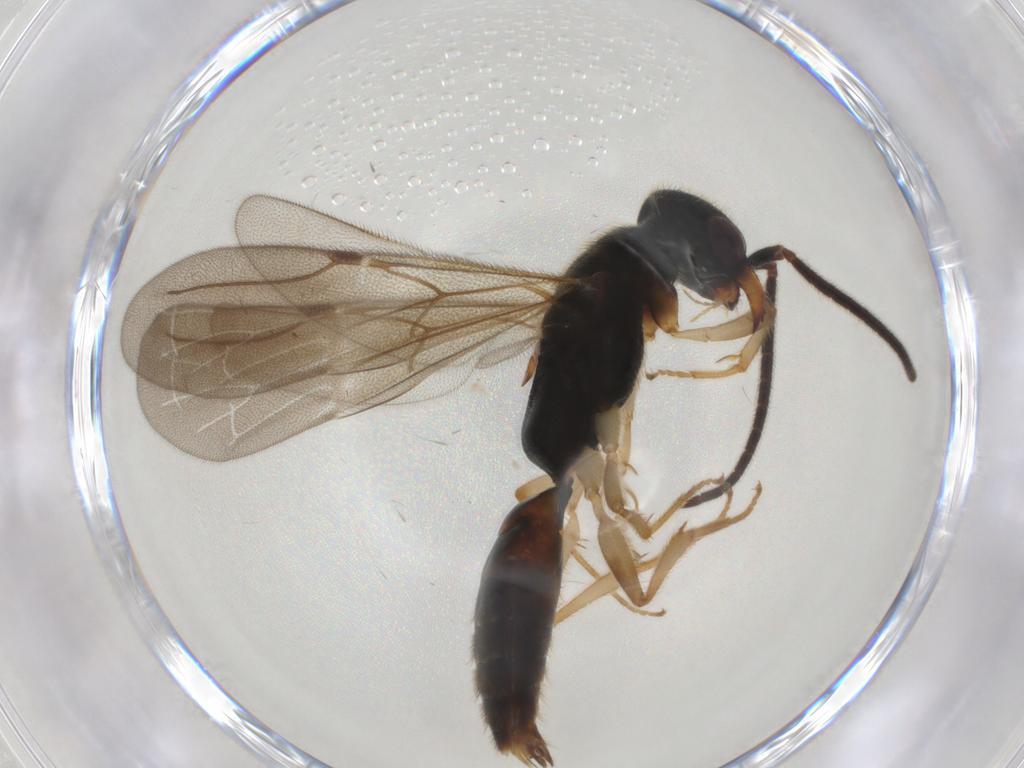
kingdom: Animalia
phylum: Arthropoda
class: Insecta
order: Hymenoptera
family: Bethylidae
